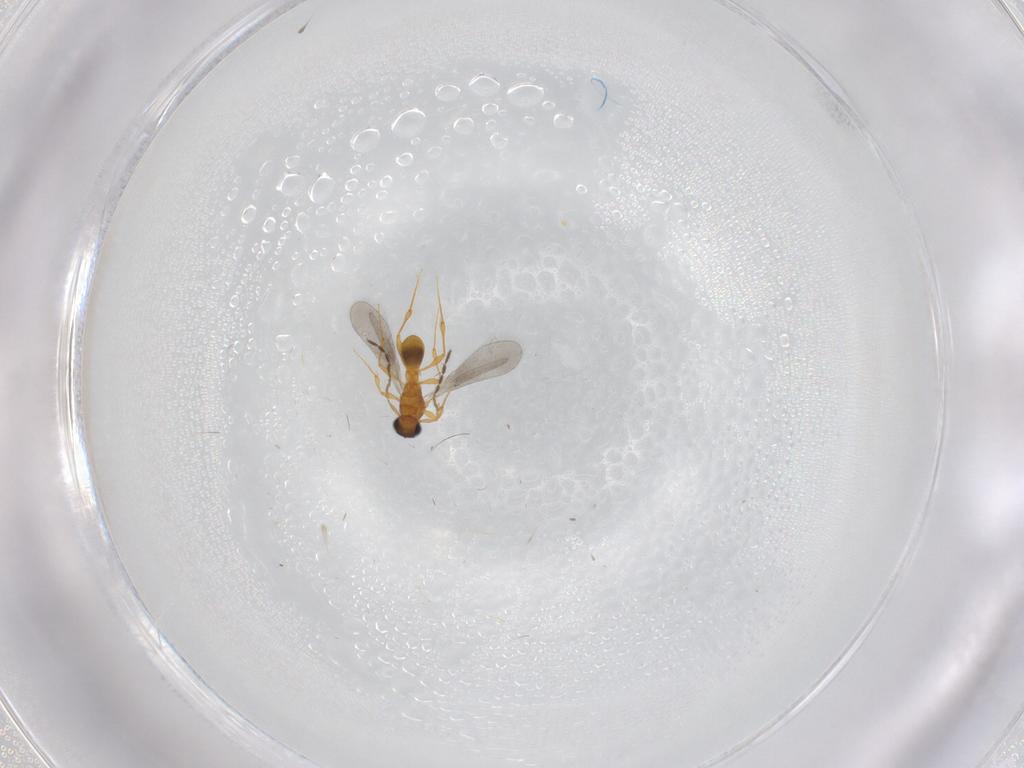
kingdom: Animalia
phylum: Arthropoda
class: Insecta
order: Hymenoptera
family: Platygastridae
